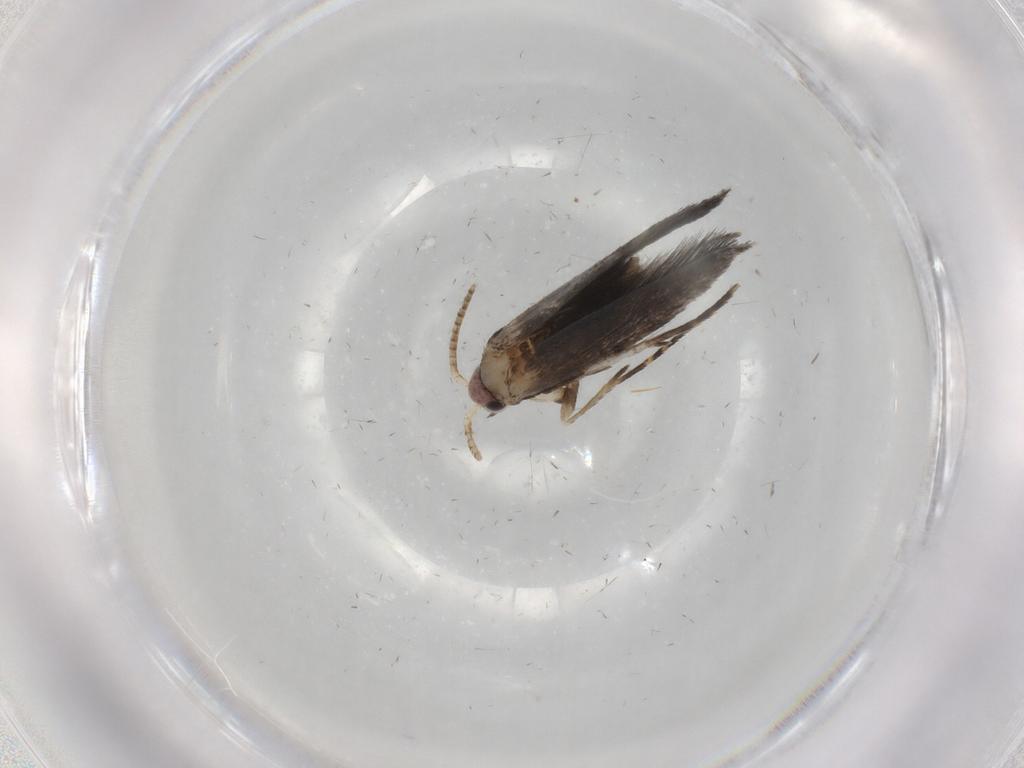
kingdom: Animalia
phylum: Arthropoda
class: Insecta
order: Lepidoptera
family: Tineidae
